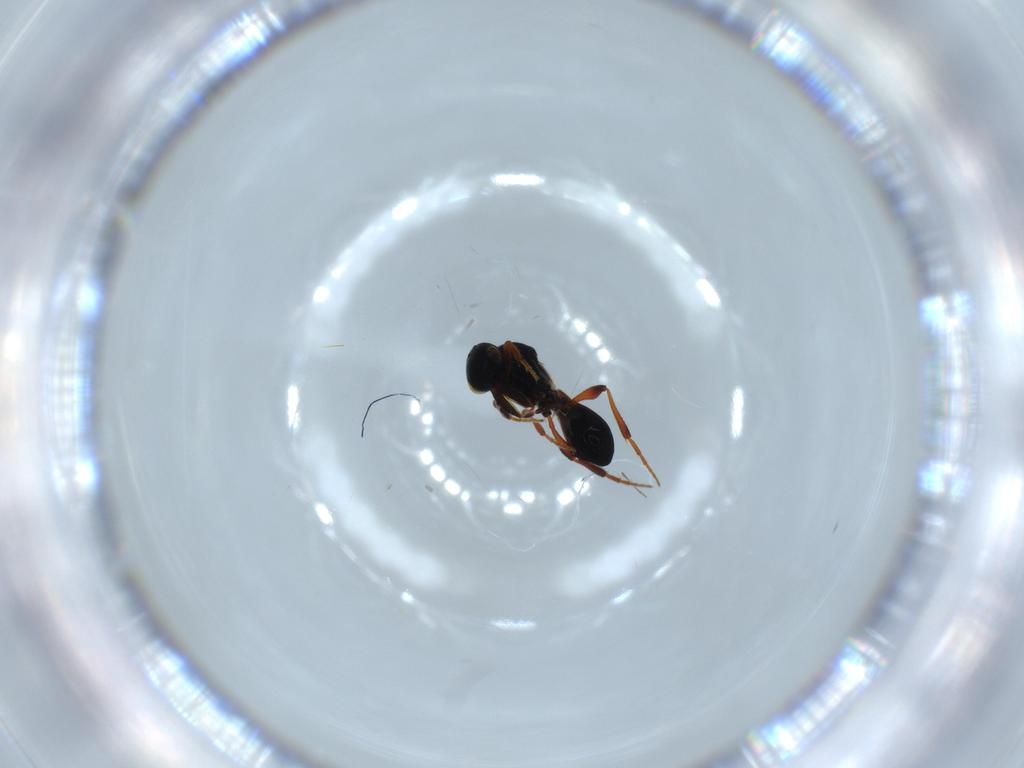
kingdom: Animalia
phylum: Arthropoda
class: Insecta
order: Hymenoptera
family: Platygastridae
